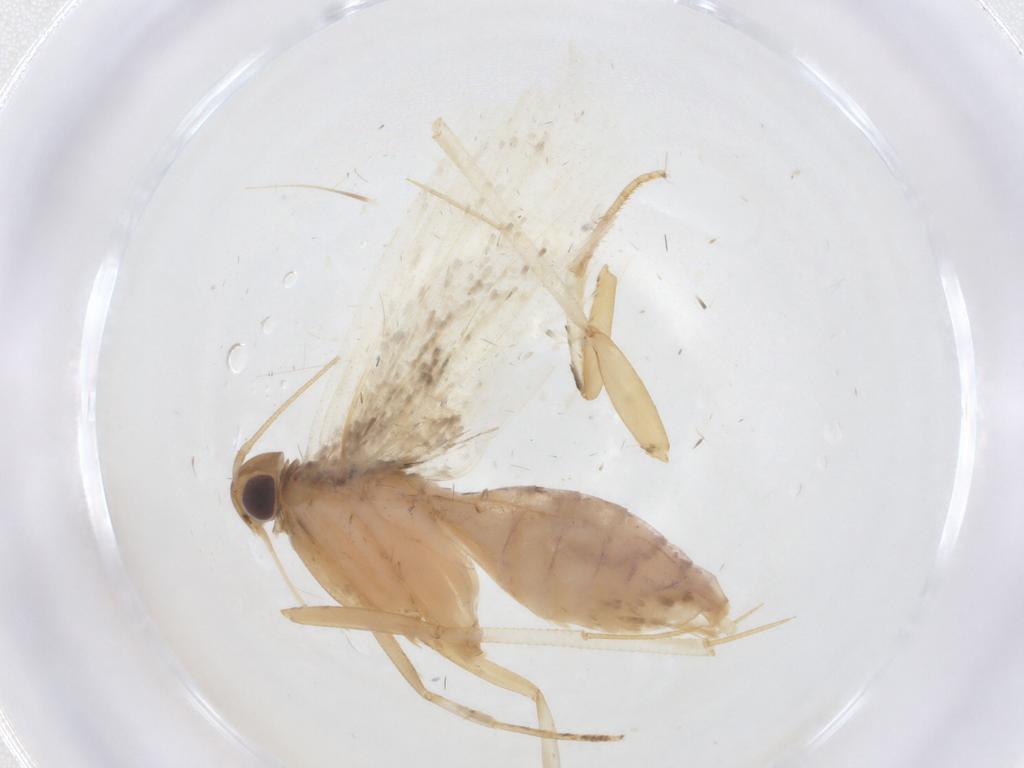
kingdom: Animalia
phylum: Arthropoda
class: Insecta
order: Lepidoptera
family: Gelechiidae
